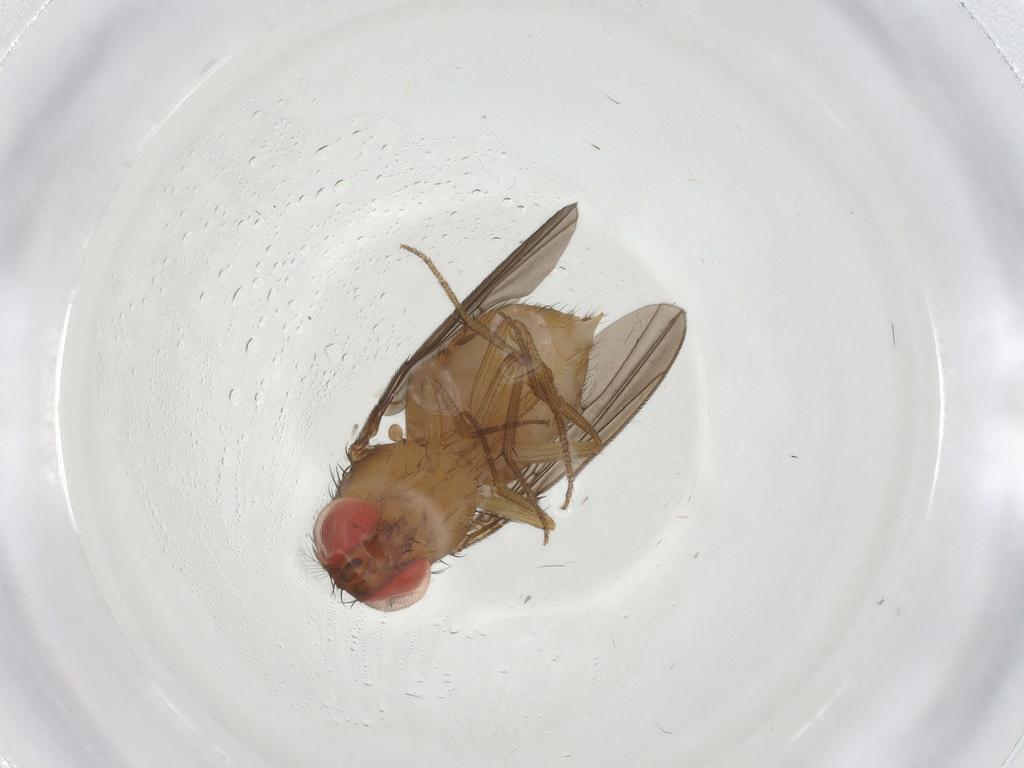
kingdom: Animalia
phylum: Arthropoda
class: Insecta
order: Diptera
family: Drosophilidae
